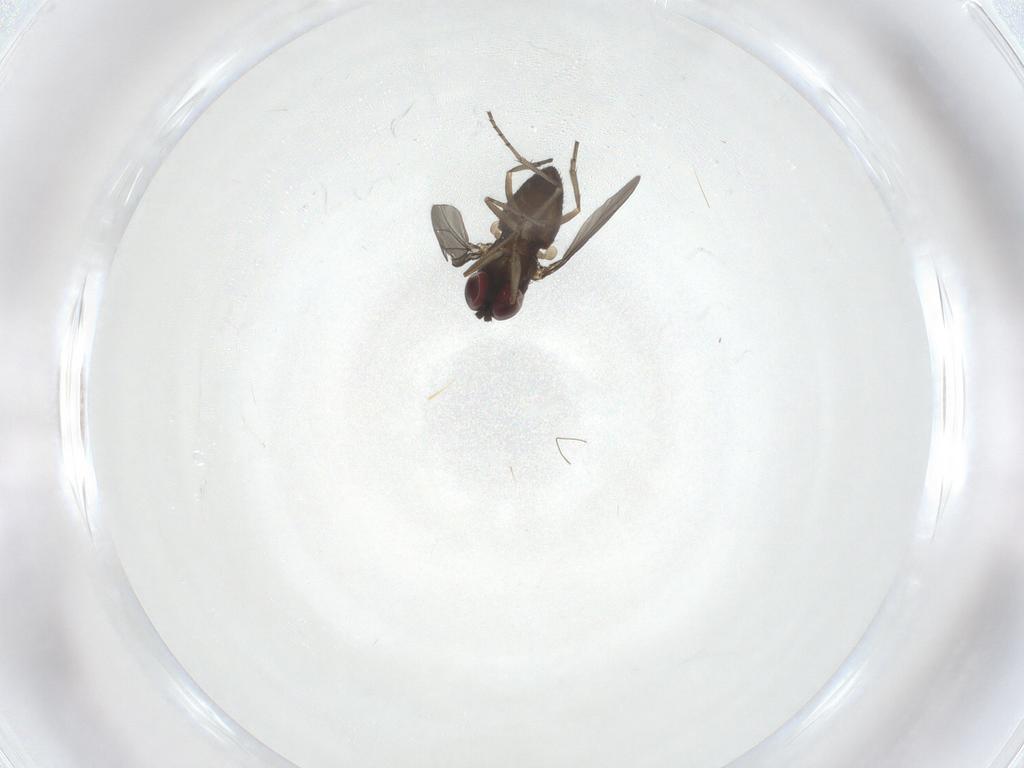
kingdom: Animalia
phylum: Arthropoda
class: Insecta
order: Diptera
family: Dolichopodidae
